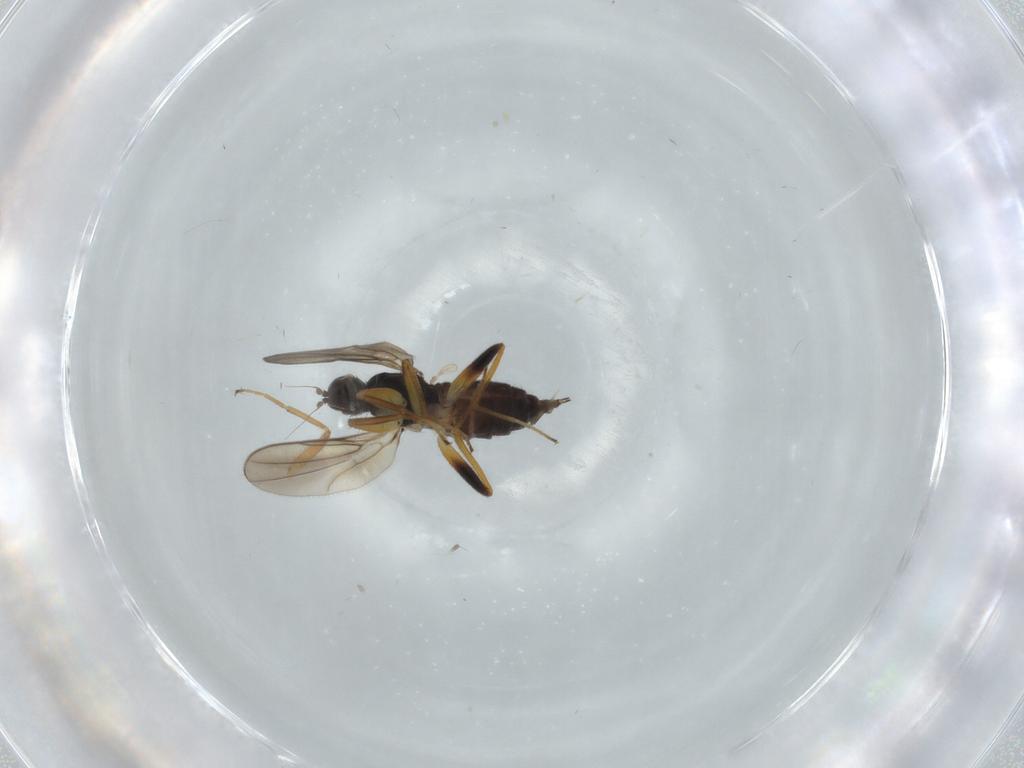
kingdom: Animalia
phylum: Arthropoda
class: Insecta
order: Diptera
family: Hybotidae
